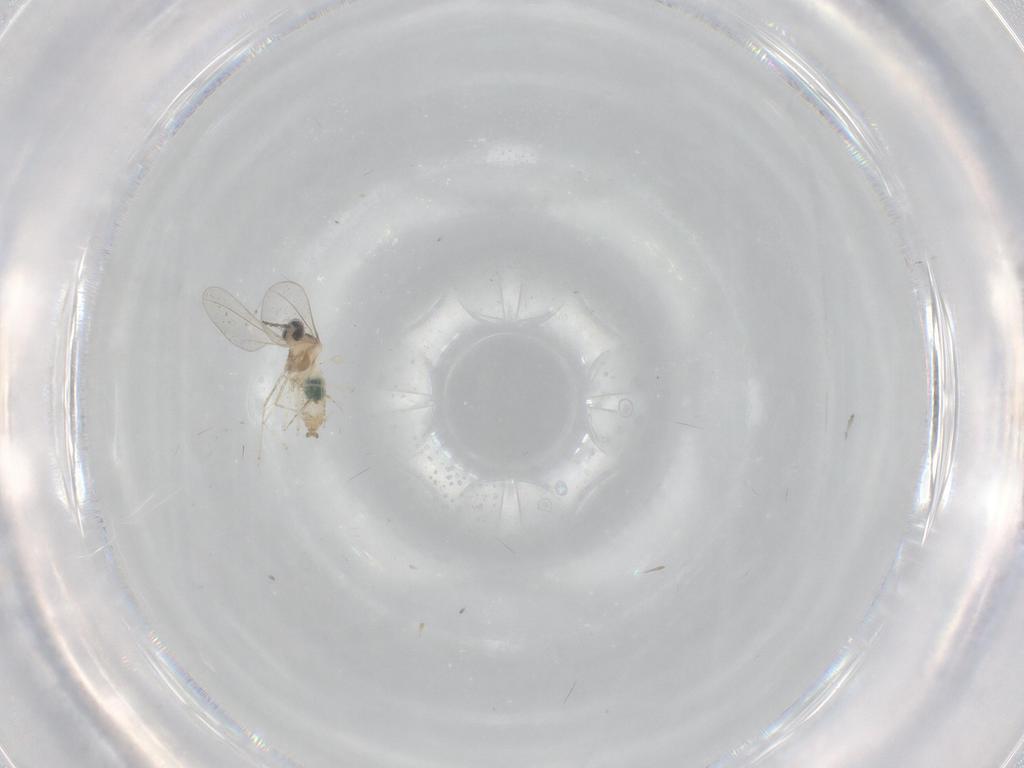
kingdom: Animalia
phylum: Arthropoda
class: Insecta
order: Diptera
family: Cecidomyiidae
